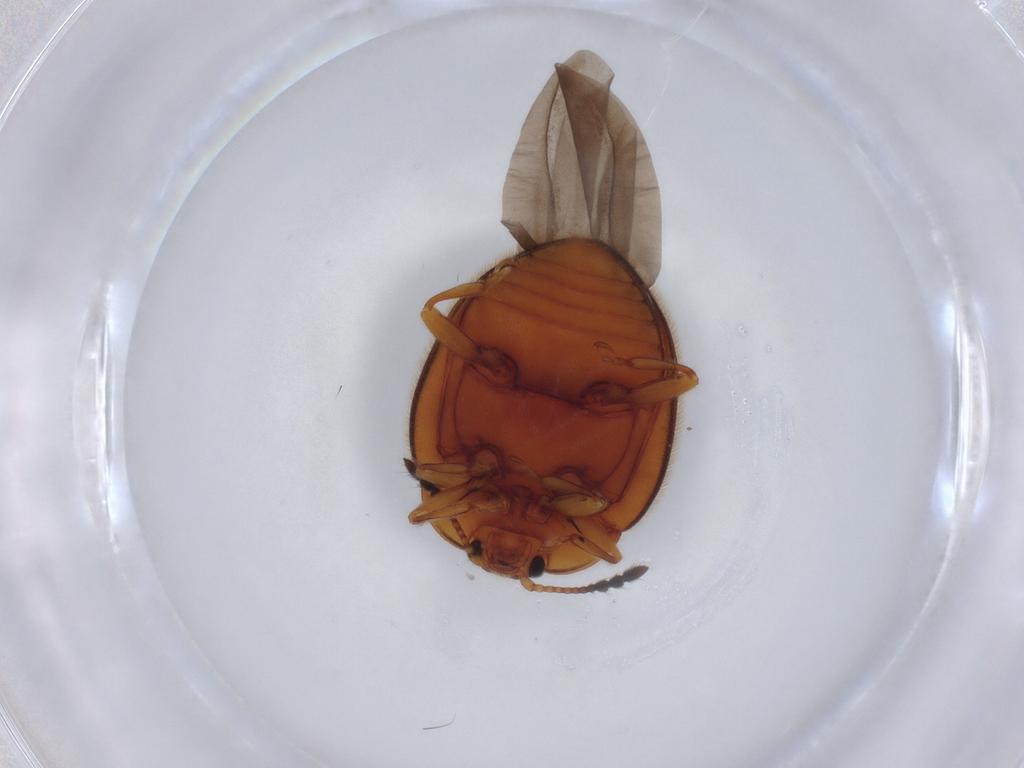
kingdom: Animalia
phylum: Arthropoda
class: Insecta
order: Coleoptera
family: Endomychidae
